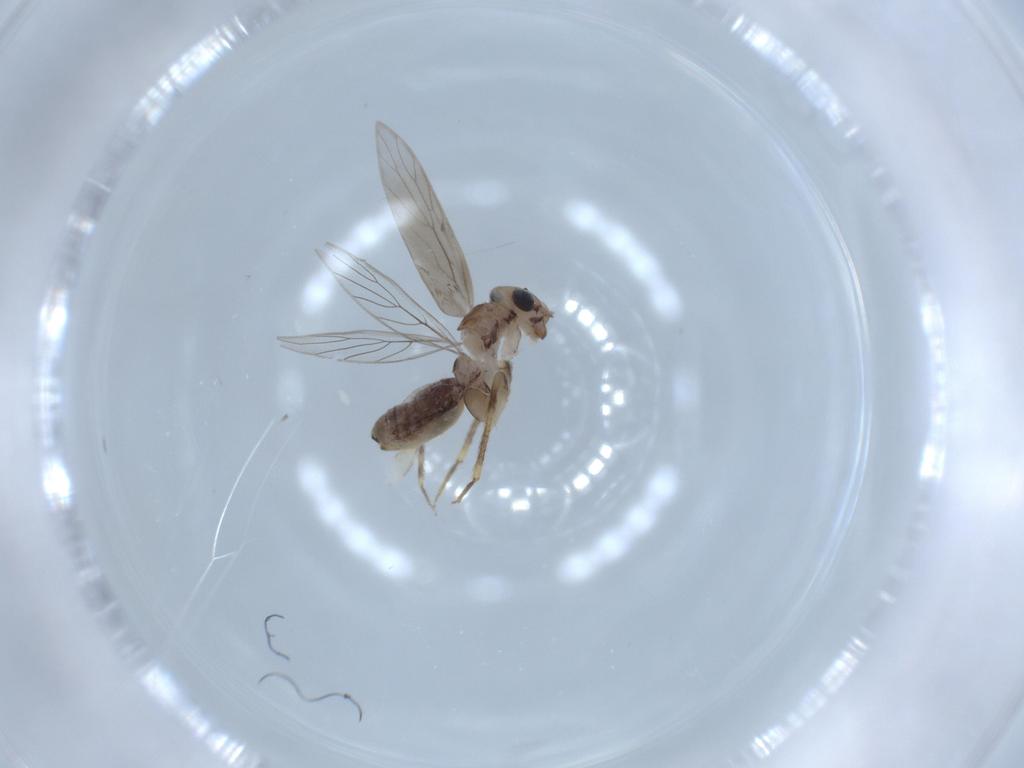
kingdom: Animalia
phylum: Arthropoda
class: Insecta
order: Psocodea
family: Lepidopsocidae
